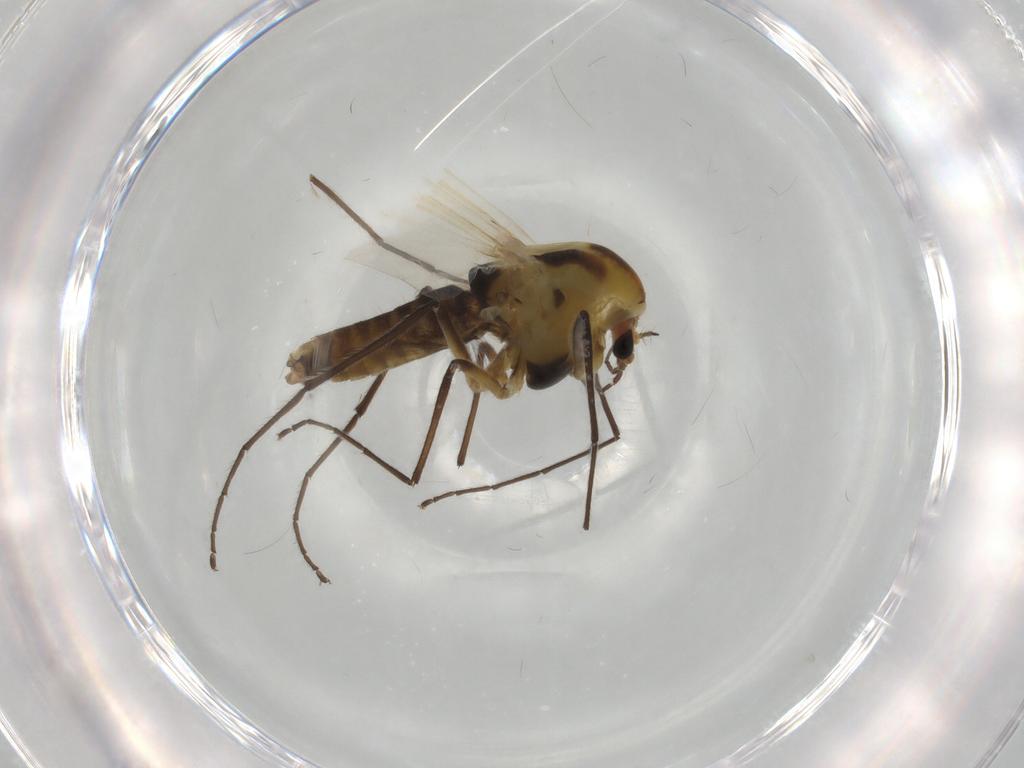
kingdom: Animalia
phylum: Arthropoda
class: Insecta
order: Diptera
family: Chironomidae
